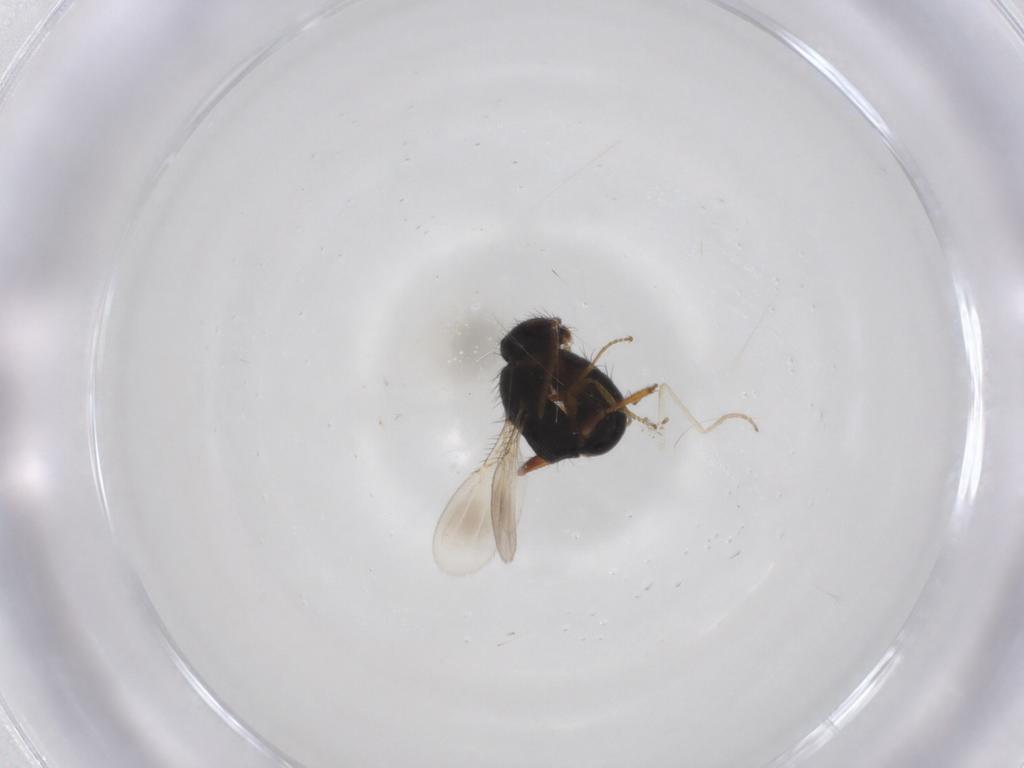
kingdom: Animalia
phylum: Arthropoda
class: Insecta
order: Hymenoptera
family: Bethylidae
